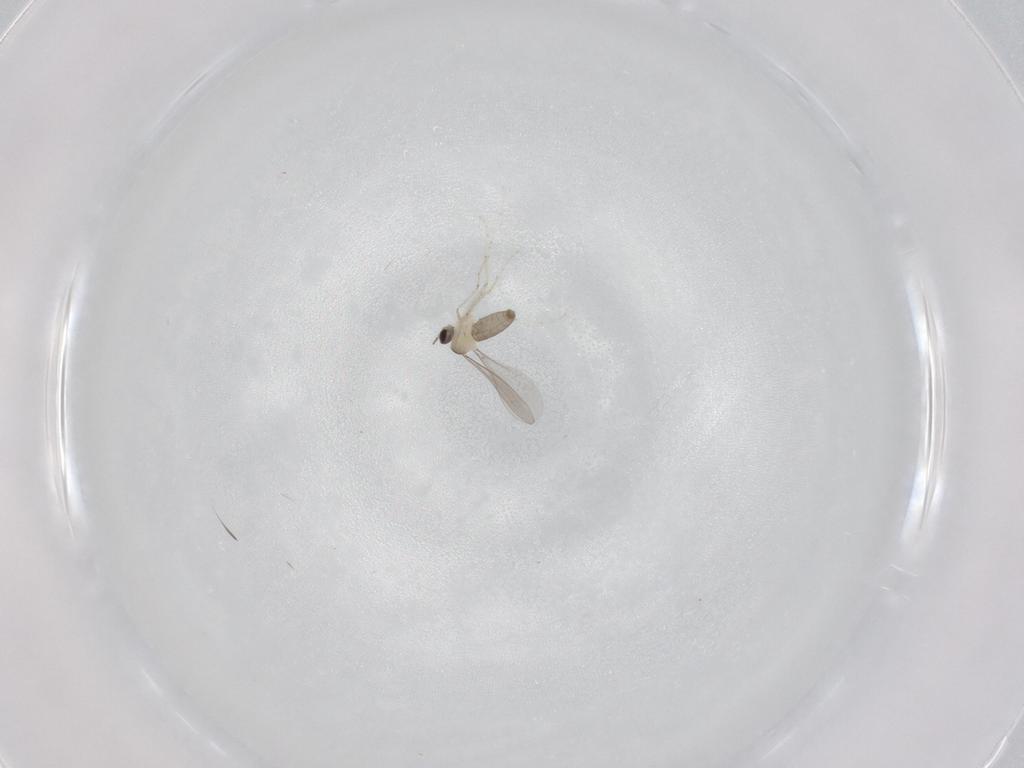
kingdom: Animalia
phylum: Arthropoda
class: Insecta
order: Diptera
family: Cecidomyiidae
